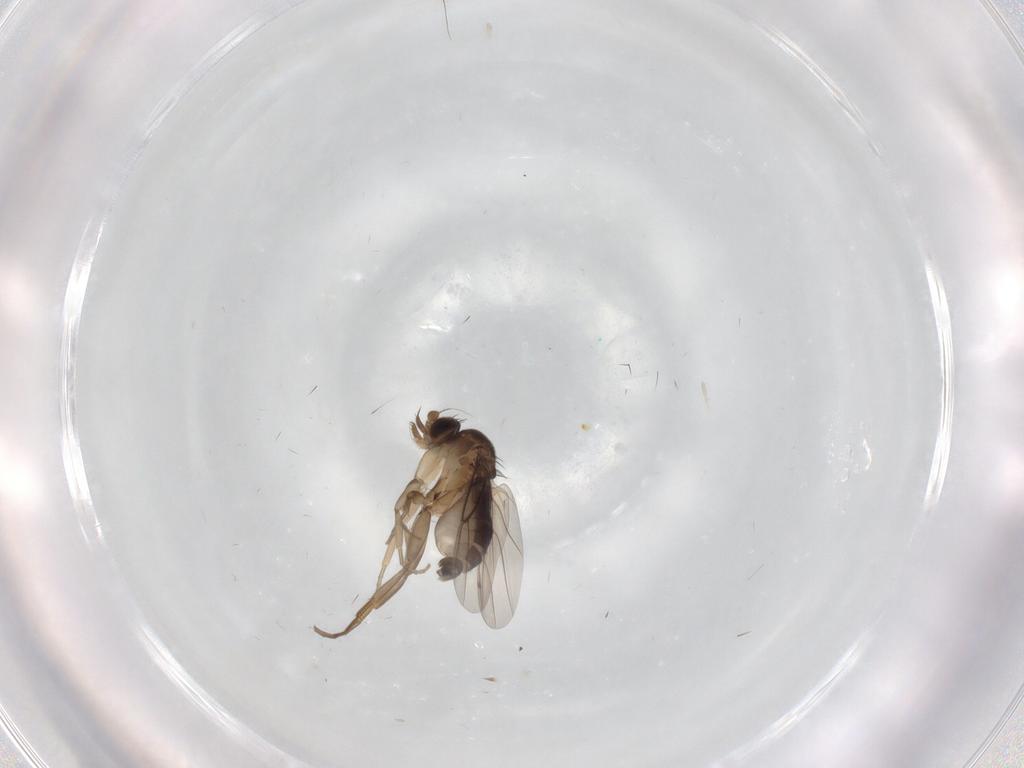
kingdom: Animalia
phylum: Arthropoda
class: Insecta
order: Diptera
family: Phoridae
